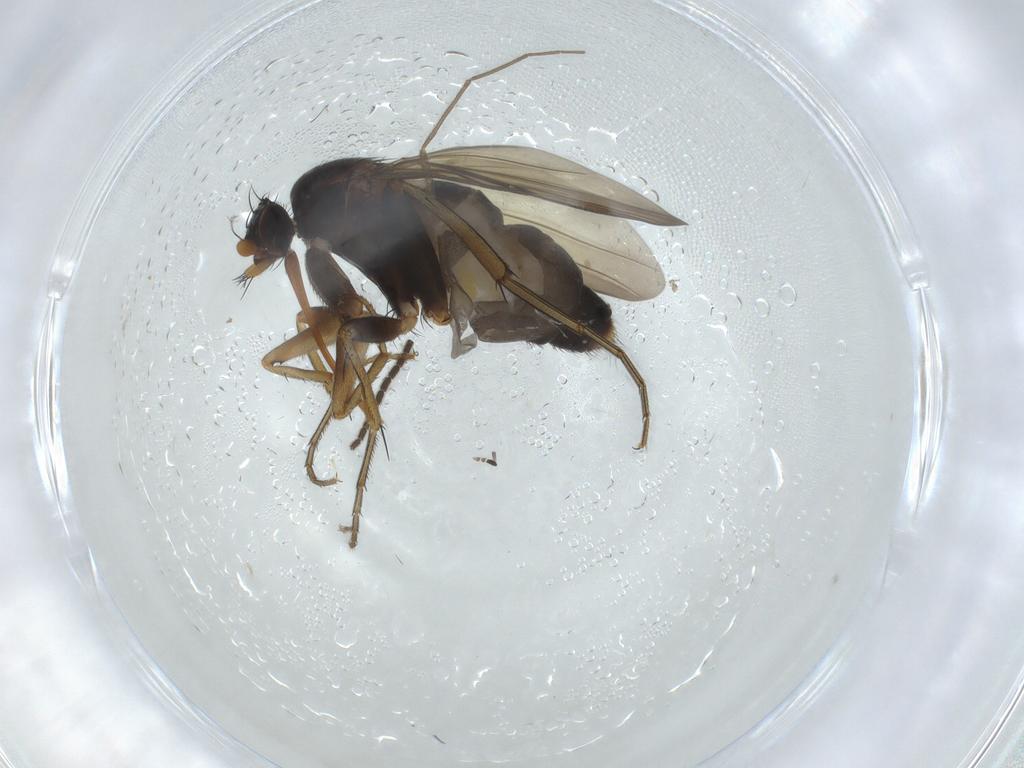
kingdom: Animalia
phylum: Arthropoda
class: Insecta
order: Diptera
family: Phoridae
